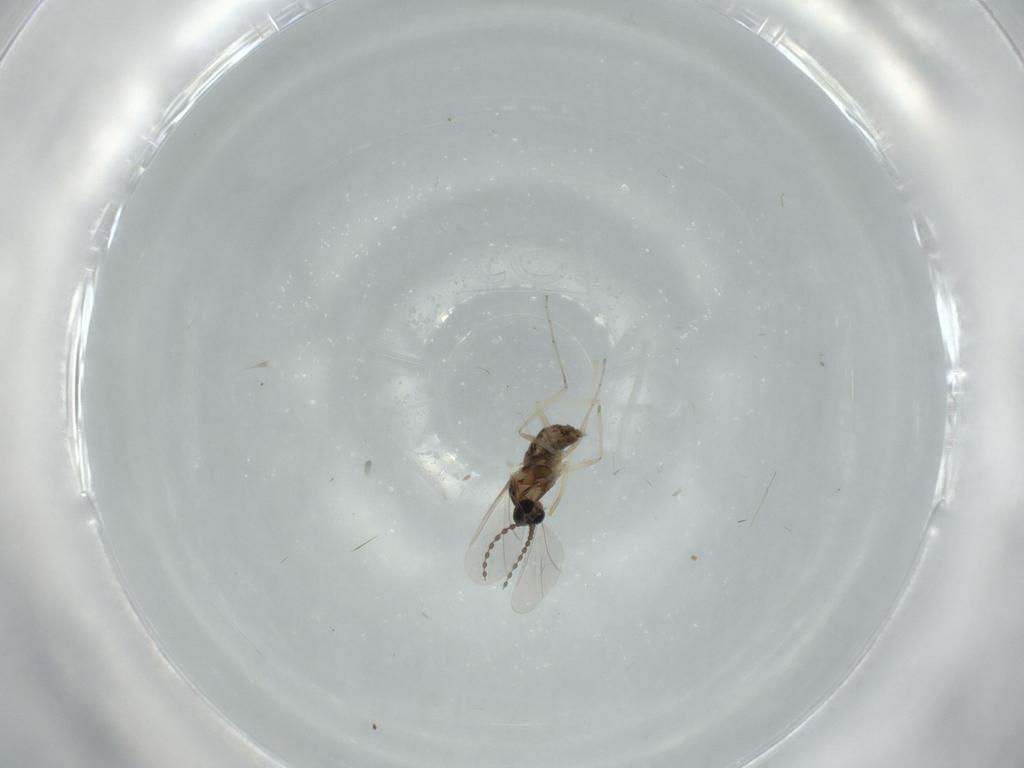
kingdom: Animalia
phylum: Arthropoda
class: Insecta
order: Diptera
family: Cecidomyiidae
